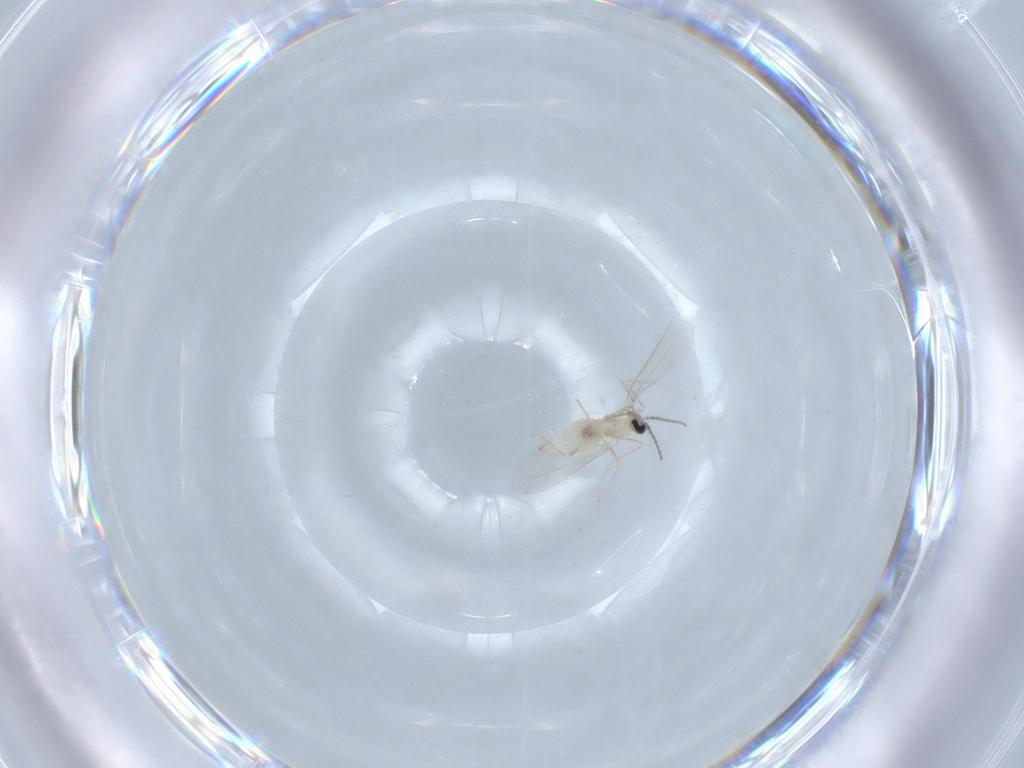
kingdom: Animalia
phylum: Arthropoda
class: Insecta
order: Diptera
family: Cecidomyiidae
